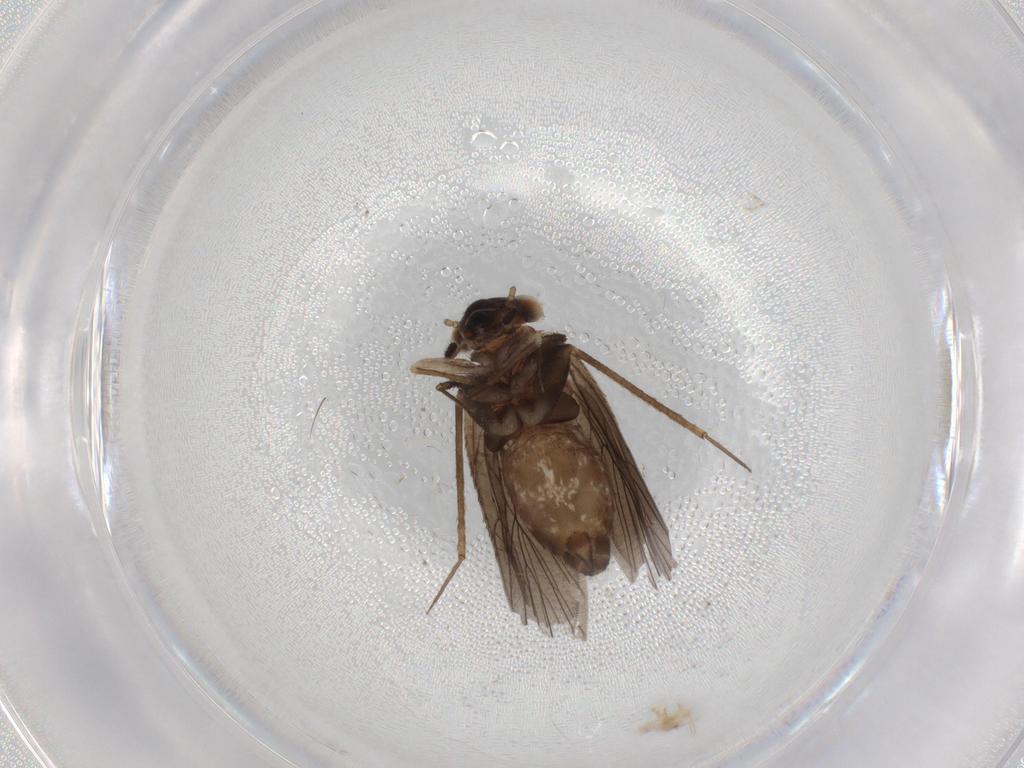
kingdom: Animalia
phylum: Arthropoda
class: Insecta
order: Psocodea
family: Lepidopsocidae
